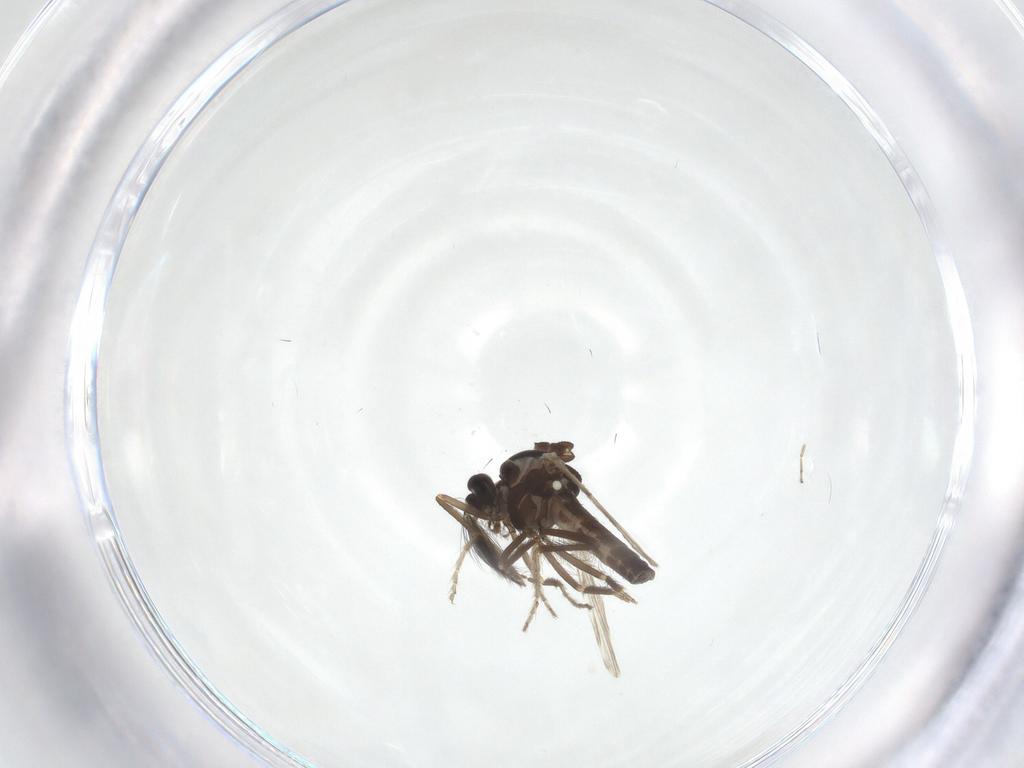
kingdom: Animalia
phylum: Arthropoda
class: Insecta
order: Diptera
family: Ceratopogonidae
